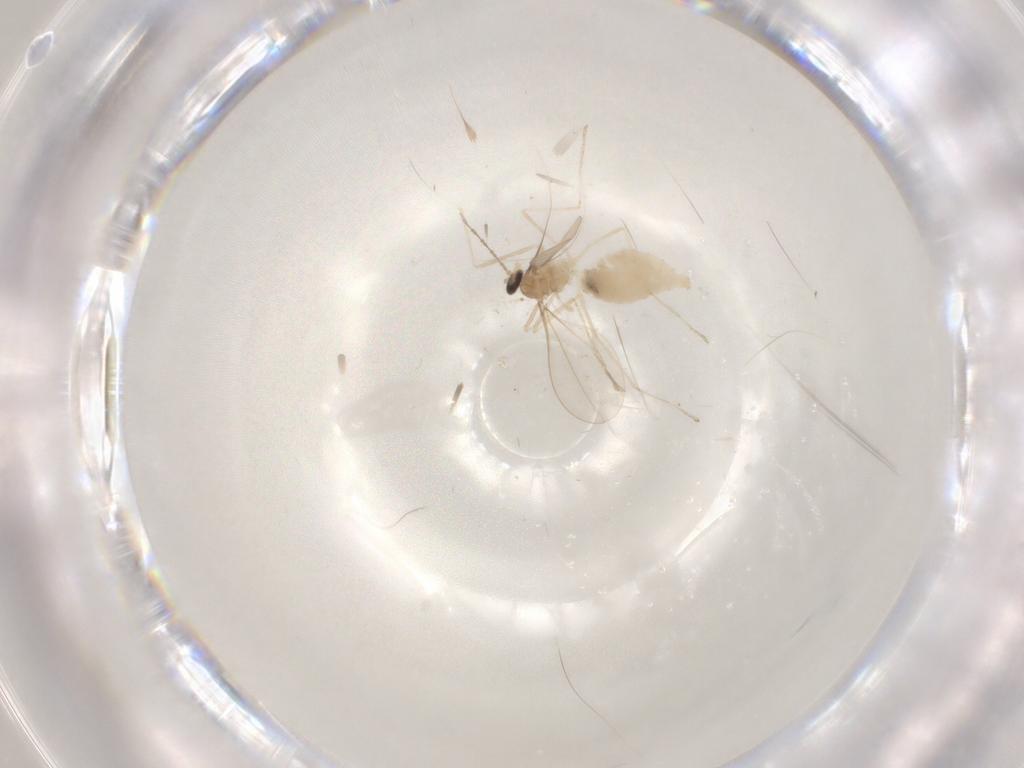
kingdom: Animalia
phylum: Arthropoda
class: Insecta
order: Diptera
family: Cecidomyiidae
